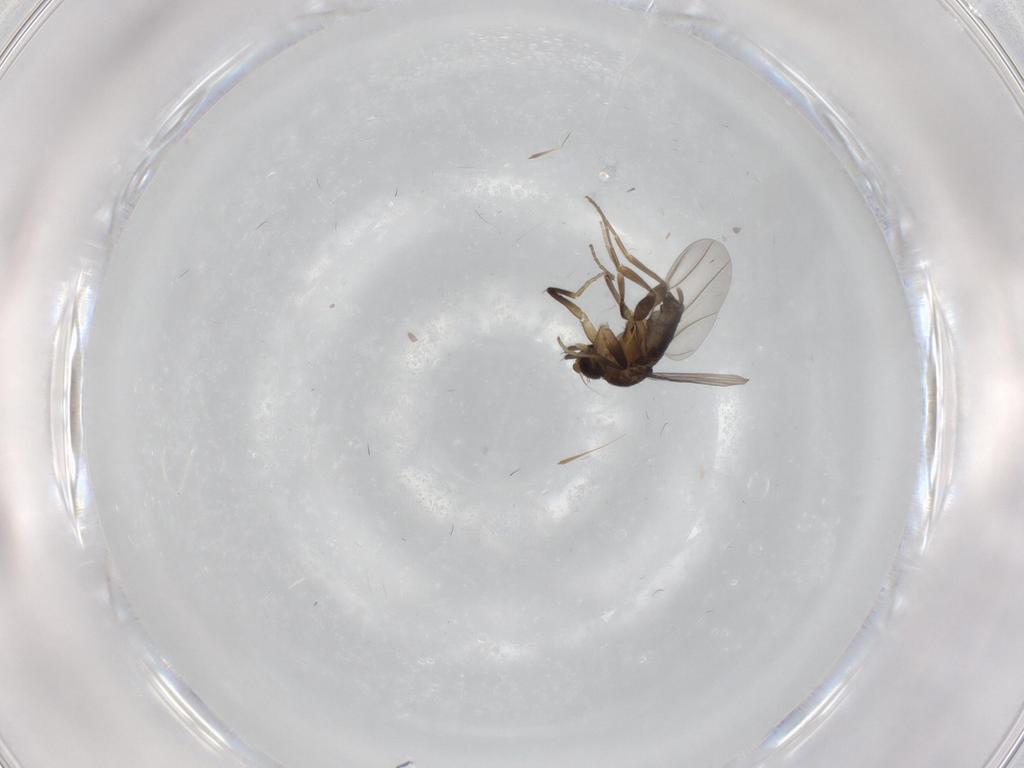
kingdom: Animalia
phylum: Arthropoda
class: Insecta
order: Diptera
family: Phoridae
